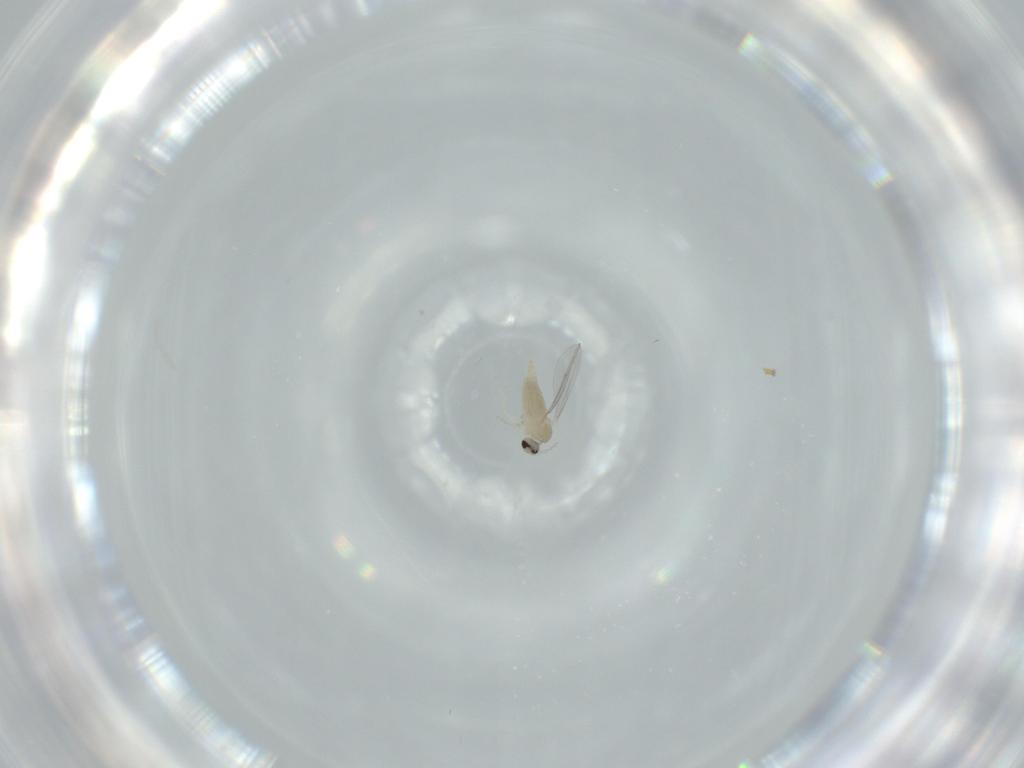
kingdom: Animalia
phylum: Arthropoda
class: Insecta
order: Diptera
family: Cecidomyiidae
